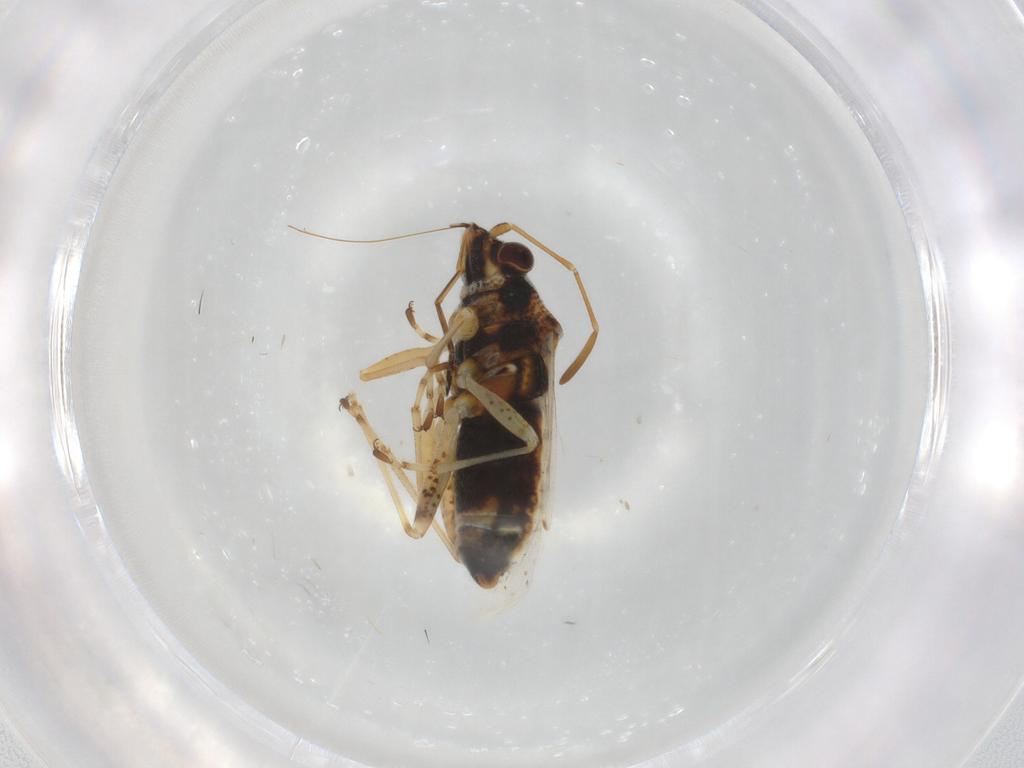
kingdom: Animalia
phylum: Arthropoda
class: Insecta
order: Hemiptera
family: Lygaeidae
